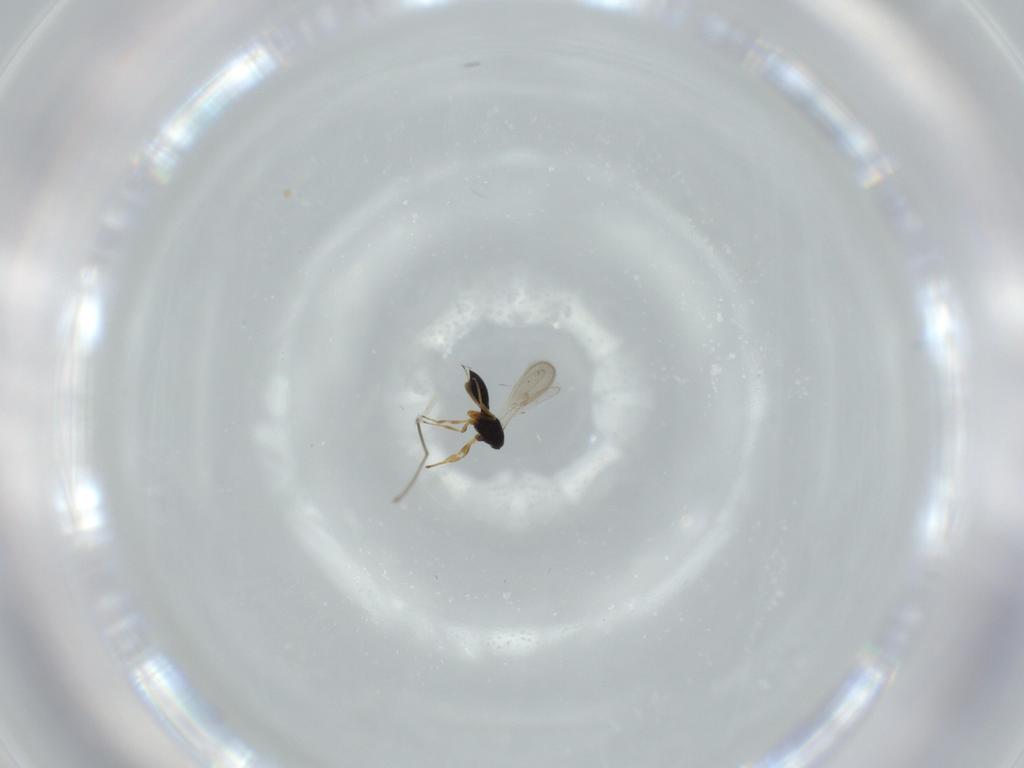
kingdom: Animalia
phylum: Arthropoda
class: Insecta
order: Hymenoptera
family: Scelionidae
